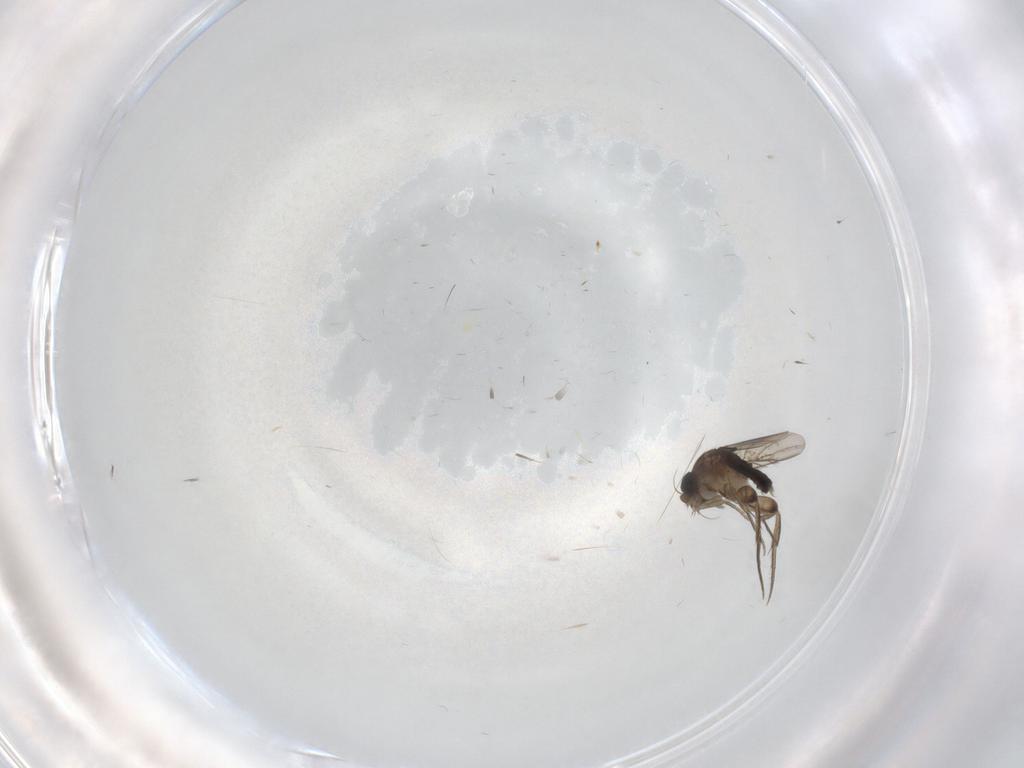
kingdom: Animalia
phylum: Arthropoda
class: Insecta
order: Diptera
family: Phoridae
